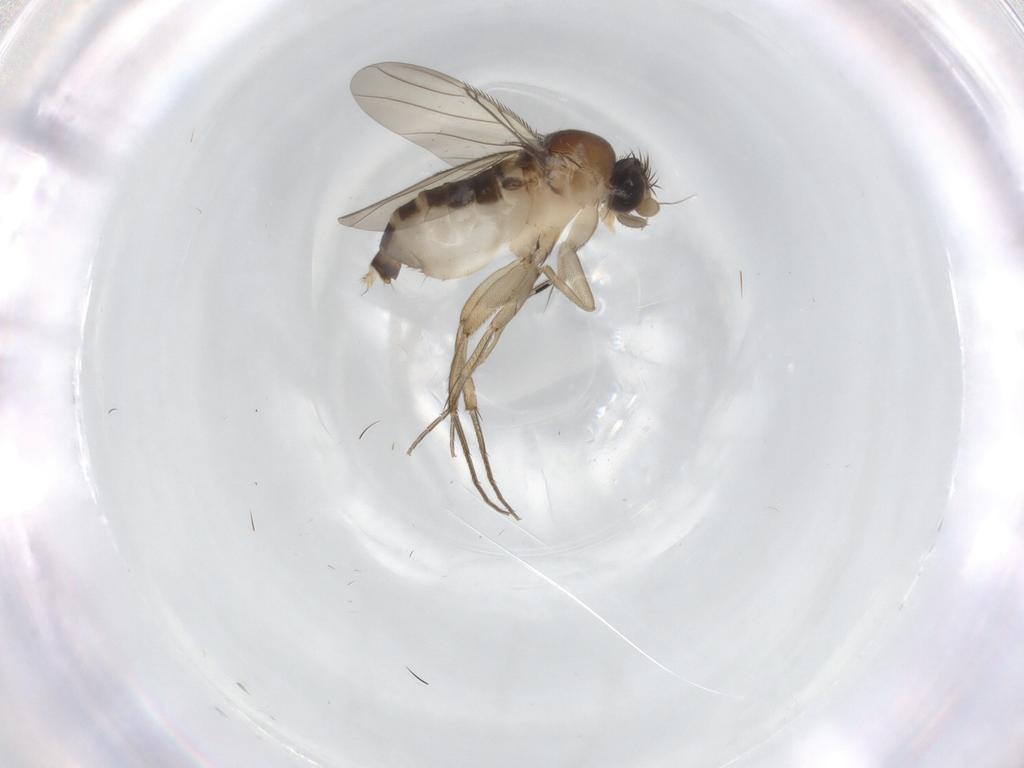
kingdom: Animalia
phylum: Arthropoda
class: Insecta
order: Diptera
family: Phoridae
